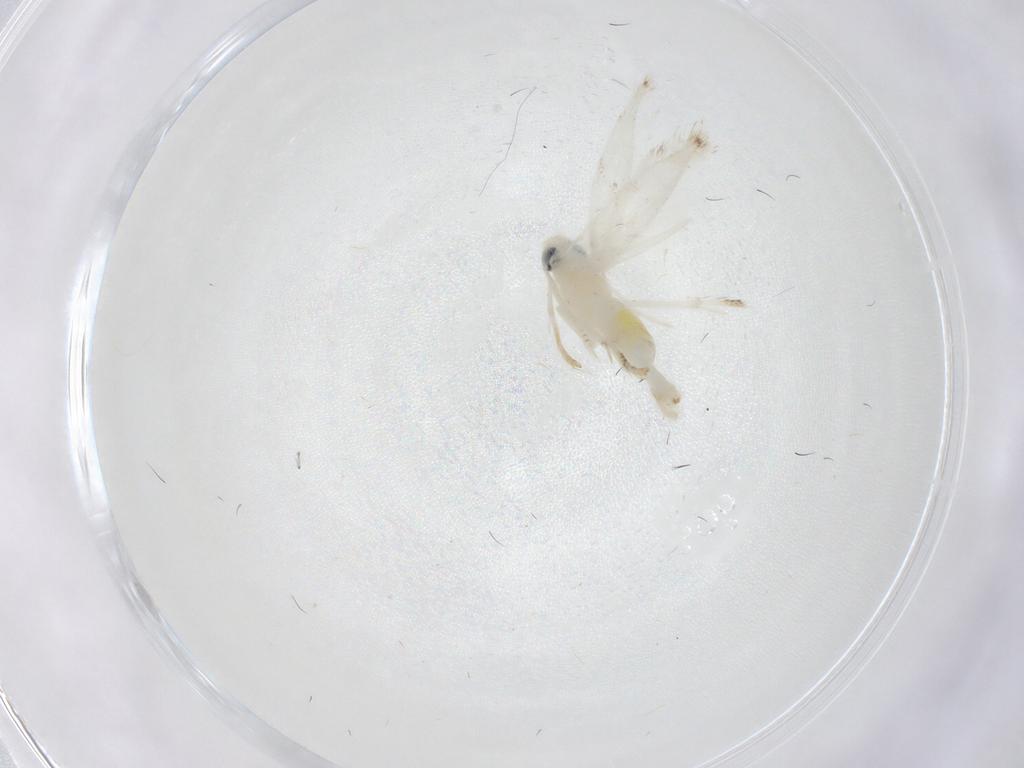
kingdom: Animalia
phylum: Arthropoda
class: Insecta
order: Lepidoptera
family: Geometridae
